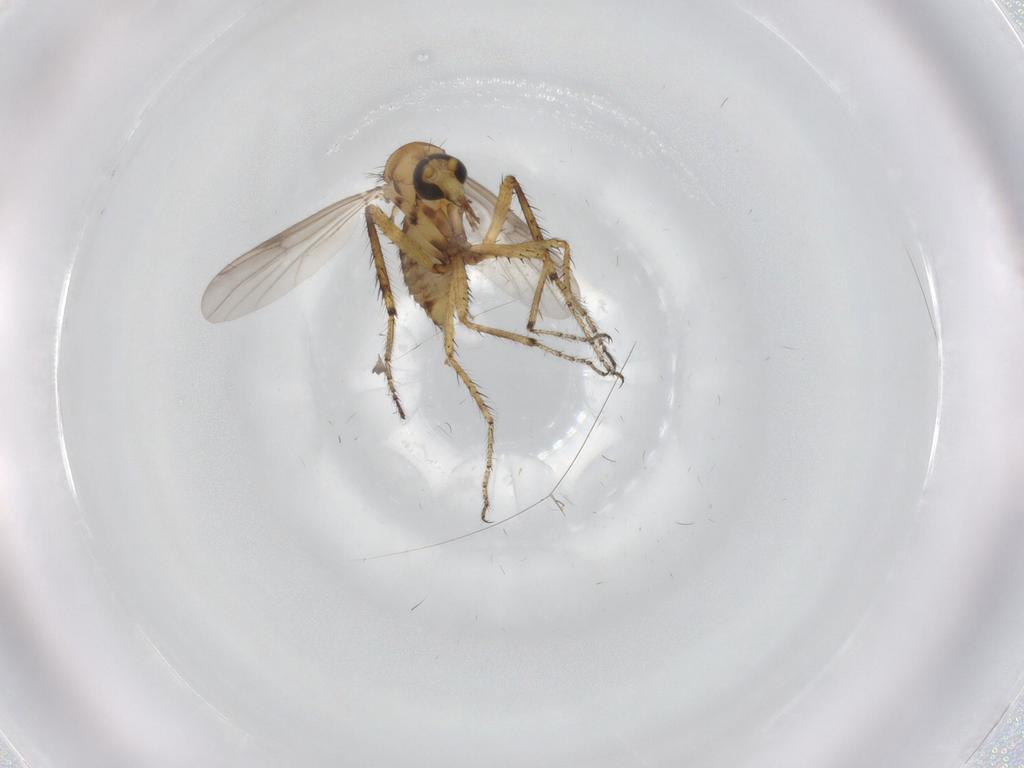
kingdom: Animalia
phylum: Arthropoda
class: Insecta
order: Diptera
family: Ceratopogonidae
